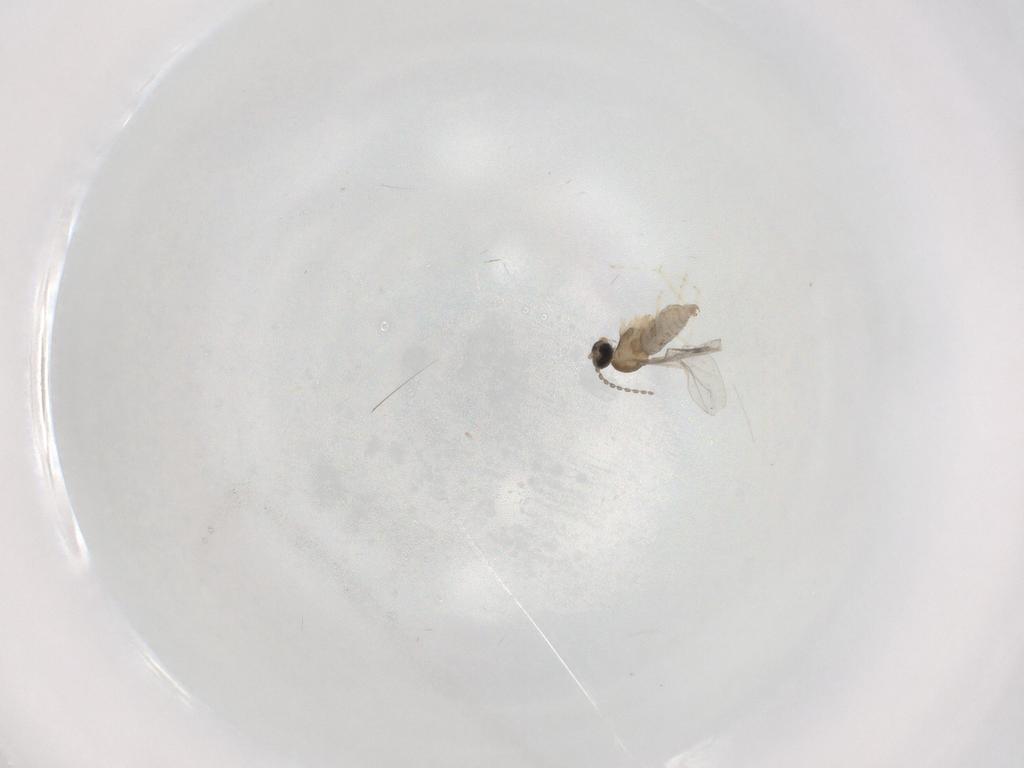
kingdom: Animalia
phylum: Arthropoda
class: Insecta
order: Diptera
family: Cecidomyiidae
